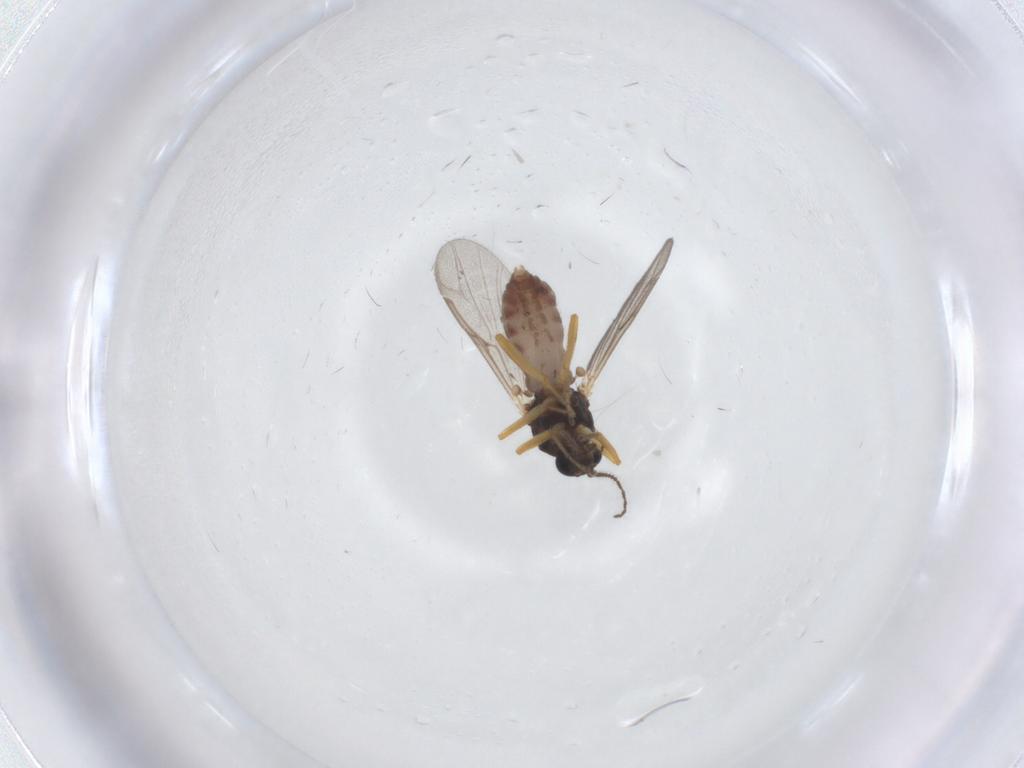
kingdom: Animalia
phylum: Arthropoda
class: Insecta
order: Diptera
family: Ceratopogonidae
